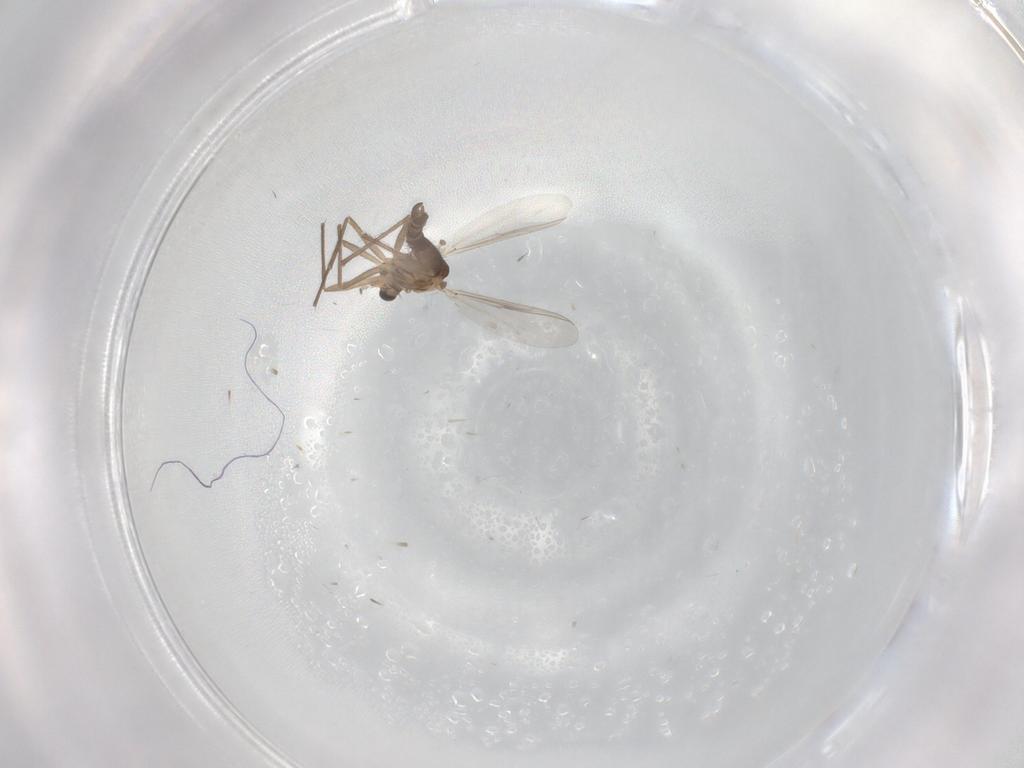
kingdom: Animalia
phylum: Arthropoda
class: Insecta
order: Diptera
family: Chironomidae
